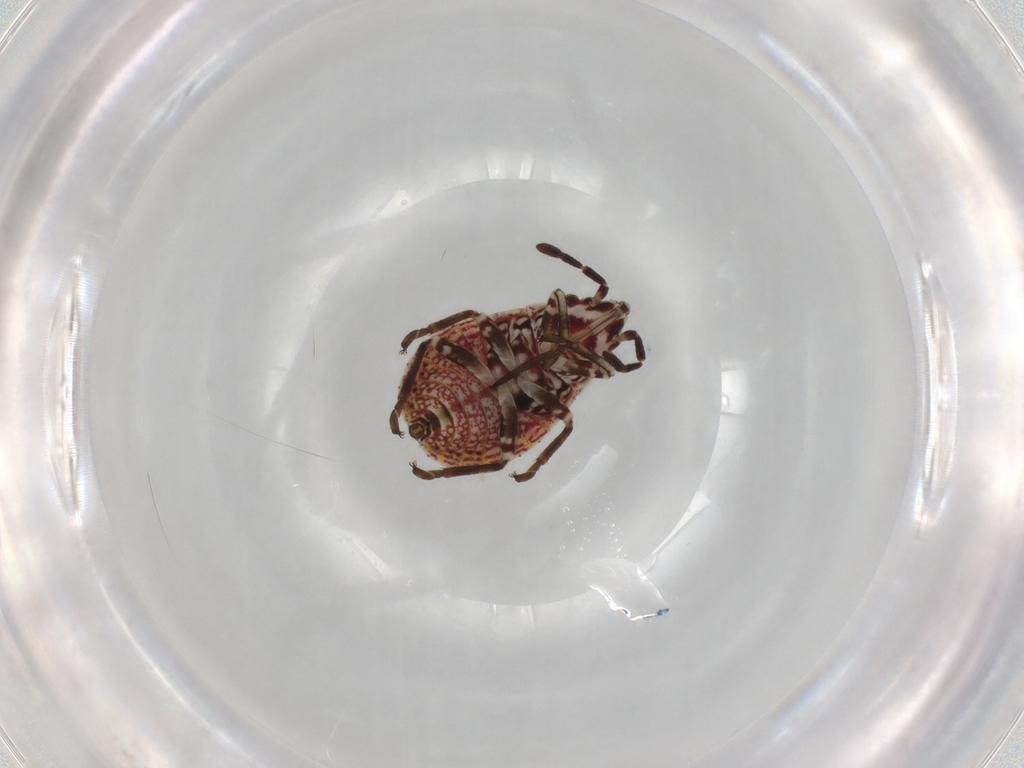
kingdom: Animalia
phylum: Arthropoda
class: Insecta
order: Hemiptera
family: Lygaeidae
